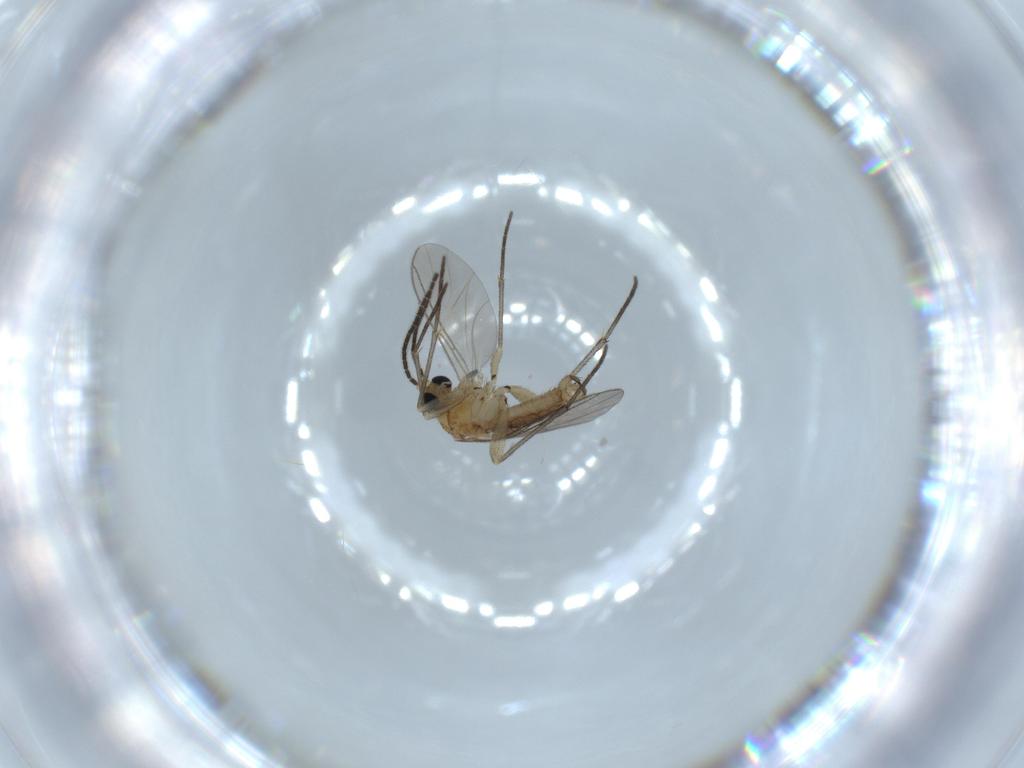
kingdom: Animalia
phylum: Arthropoda
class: Insecta
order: Diptera
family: Sciaridae
